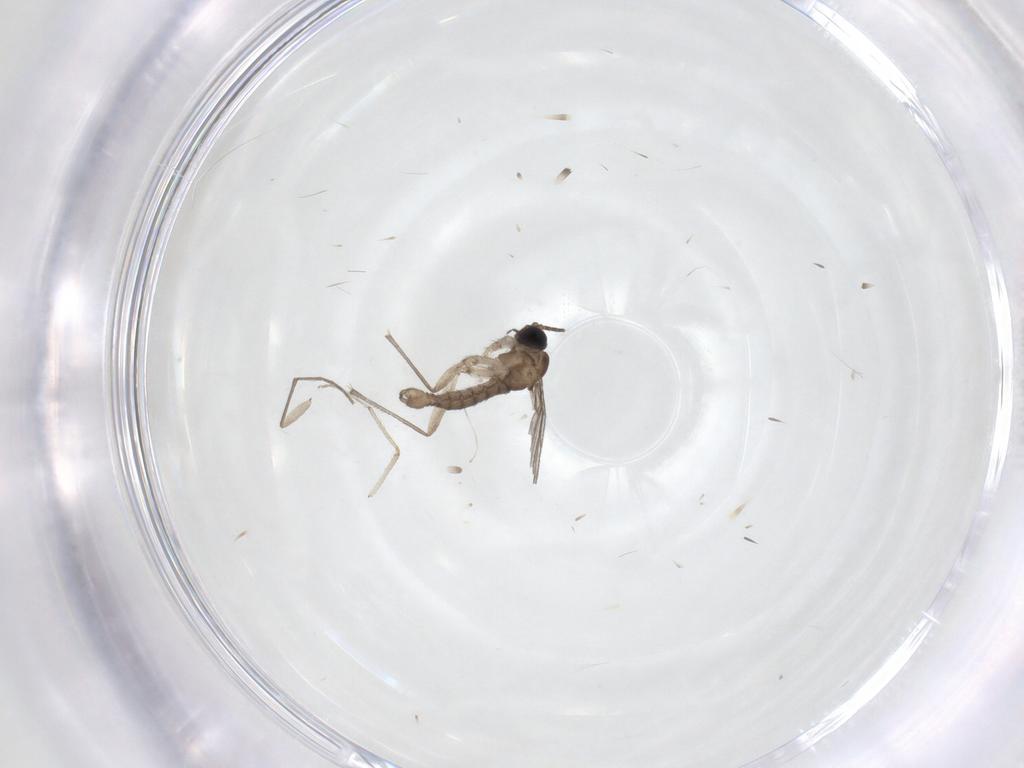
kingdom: Animalia
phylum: Arthropoda
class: Insecta
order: Diptera
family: Sciaridae
